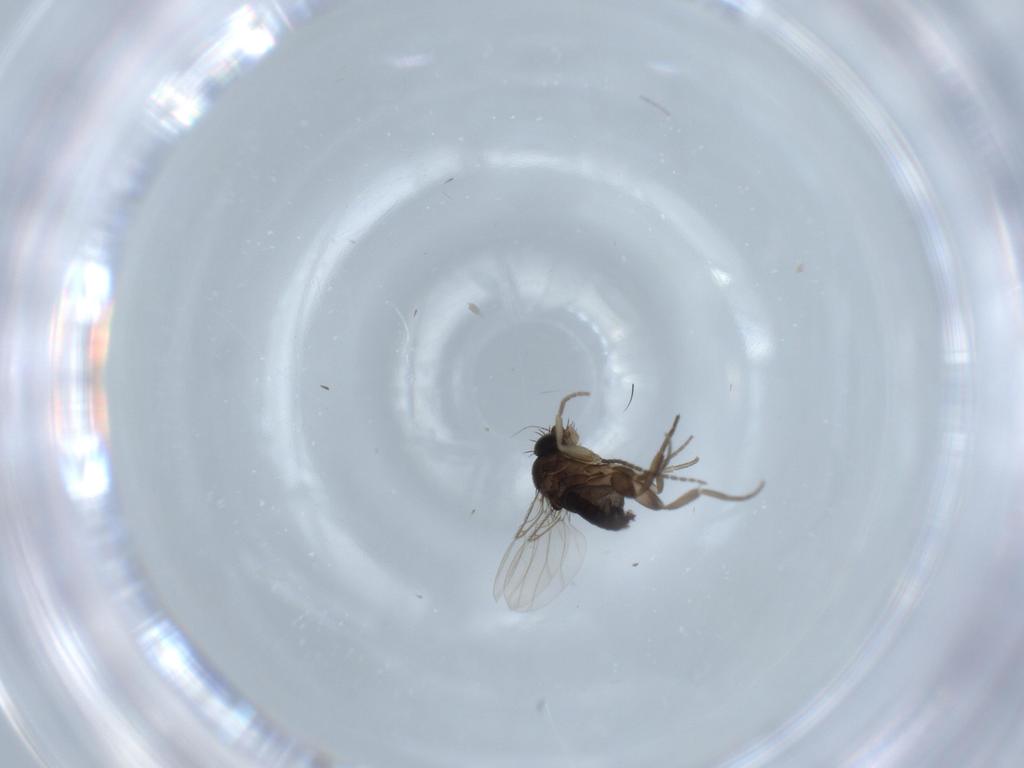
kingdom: Animalia
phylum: Arthropoda
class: Insecta
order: Diptera
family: Phoridae
